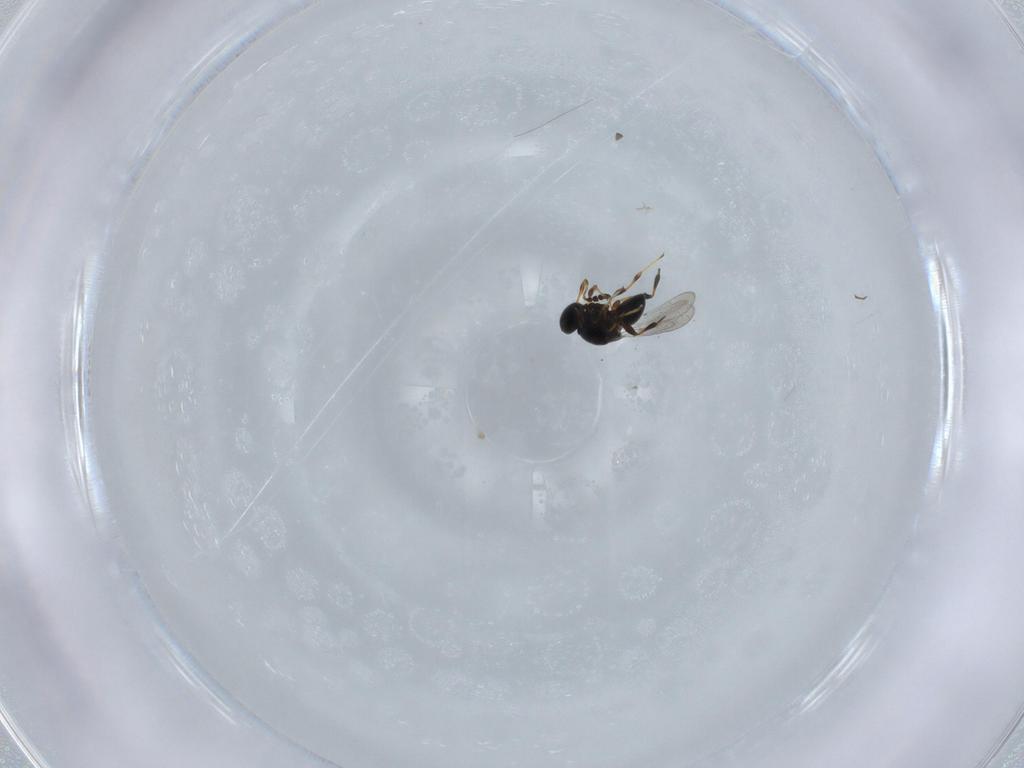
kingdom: Animalia
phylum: Arthropoda
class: Insecta
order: Hymenoptera
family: Platygastridae
